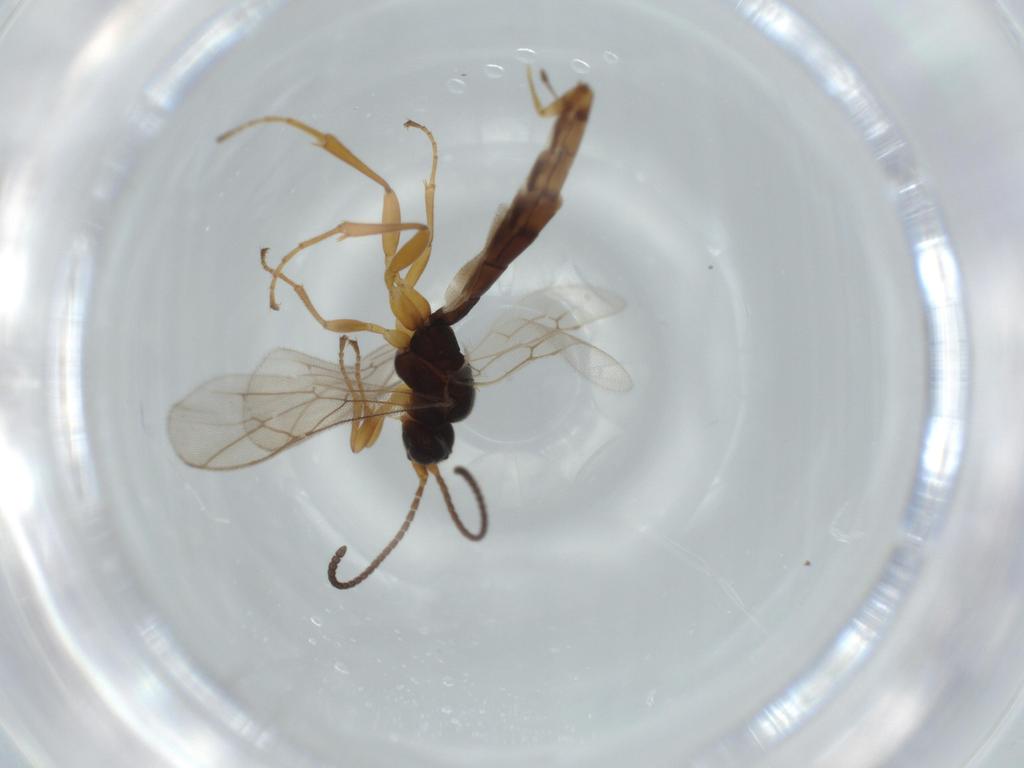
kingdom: Animalia
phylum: Arthropoda
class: Insecta
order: Hymenoptera
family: Ichneumonidae
